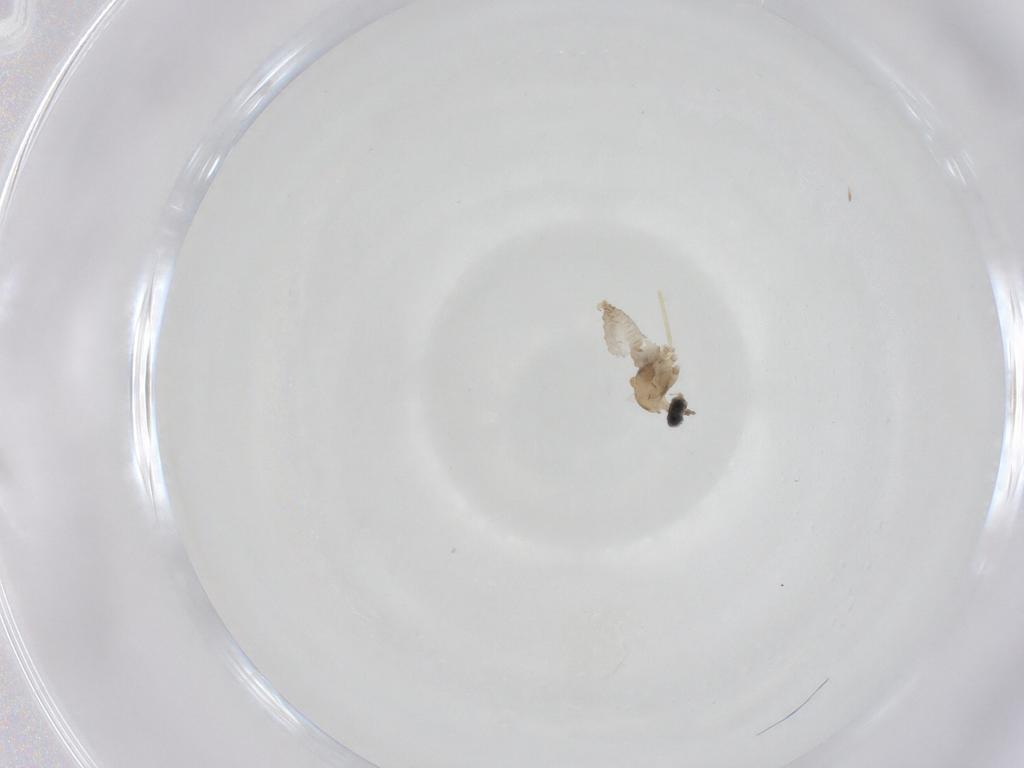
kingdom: Animalia
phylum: Arthropoda
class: Insecta
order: Diptera
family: Cecidomyiidae
